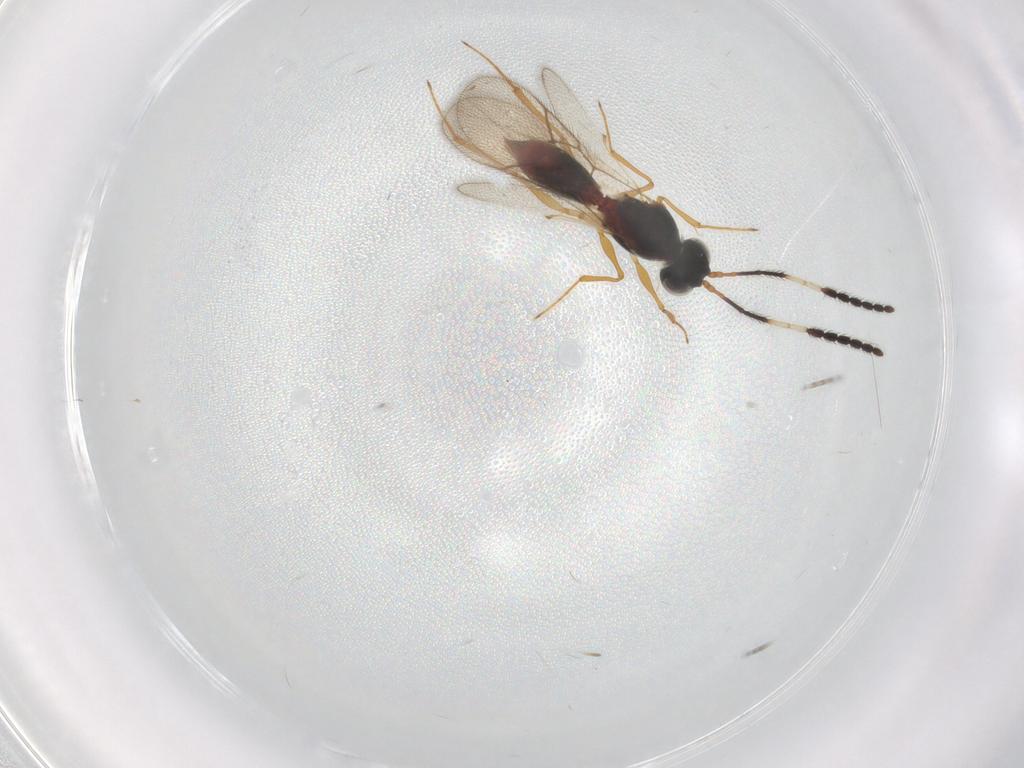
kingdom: Animalia
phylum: Arthropoda
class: Insecta
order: Hymenoptera
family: Figitidae
